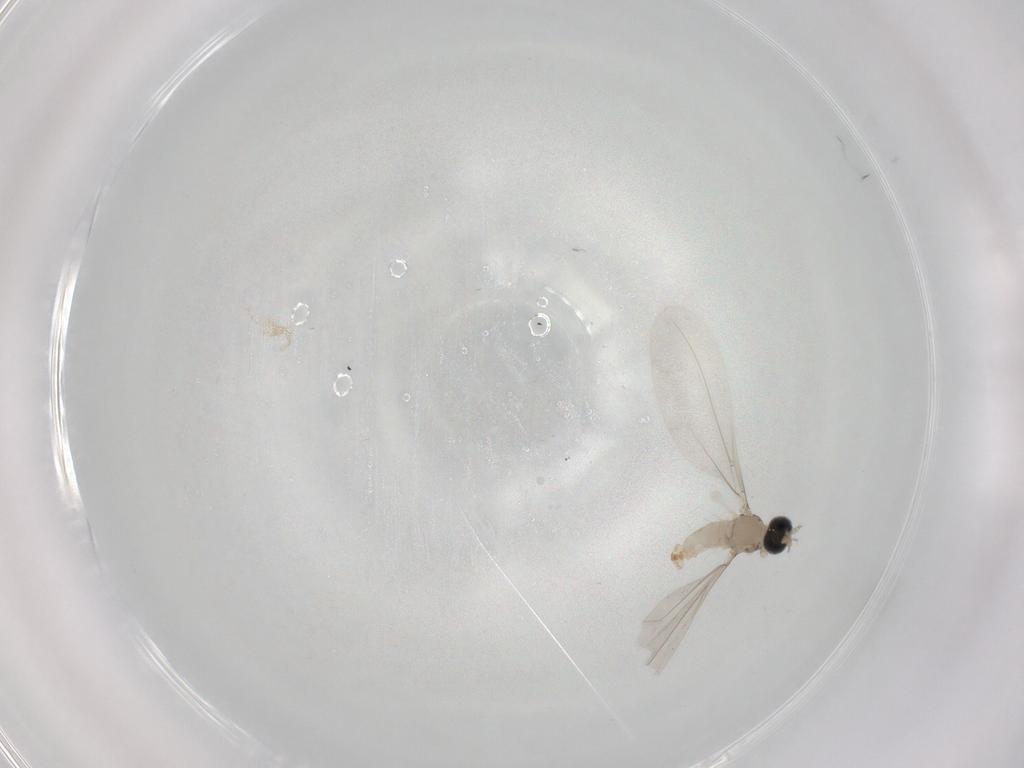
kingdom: Animalia
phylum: Arthropoda
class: Insecta
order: Diptera
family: Cecidomyiidae
